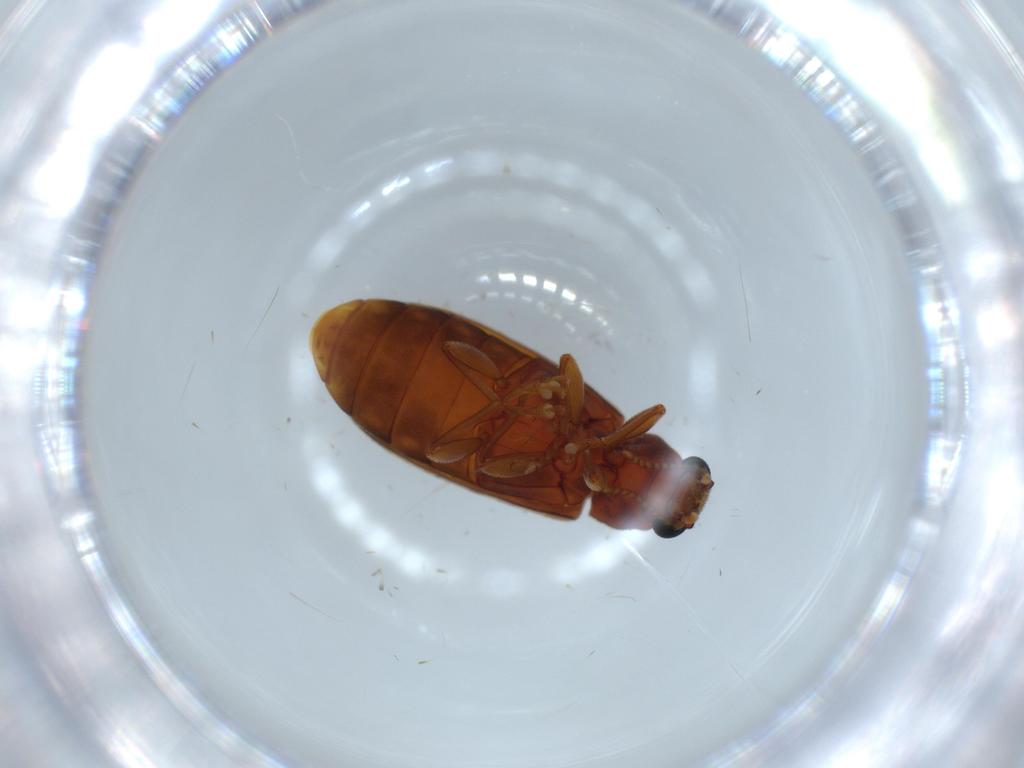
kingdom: Animalia
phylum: Arthropoda
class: Insecta
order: Coleoptera
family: Mycteridae
